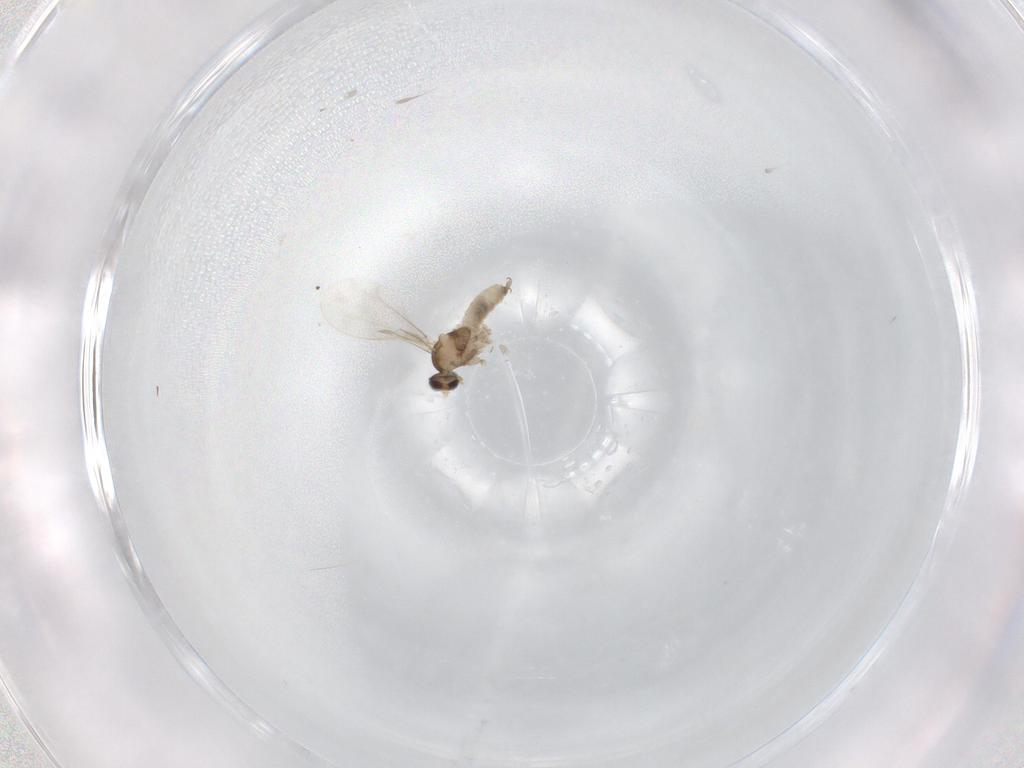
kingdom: Animalia
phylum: Arthropoda
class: Insecta
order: Diptera
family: Cecidomyiidae
